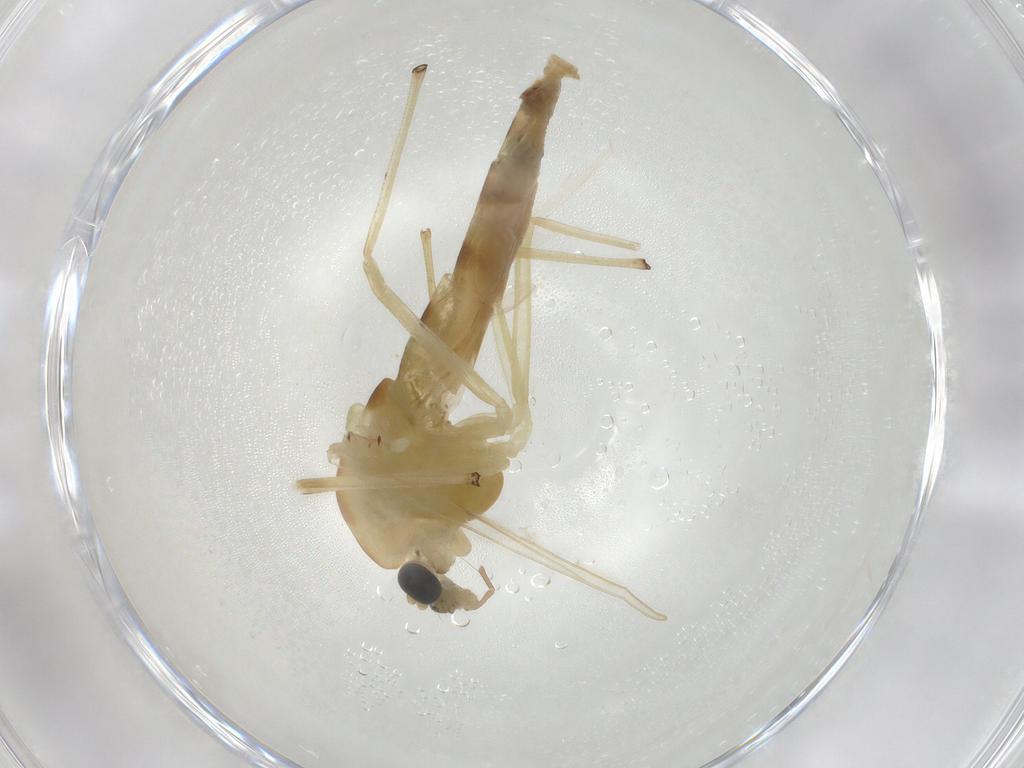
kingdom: Animalia
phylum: Arthropoda
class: Insecta
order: Diptera
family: Chironomidae
